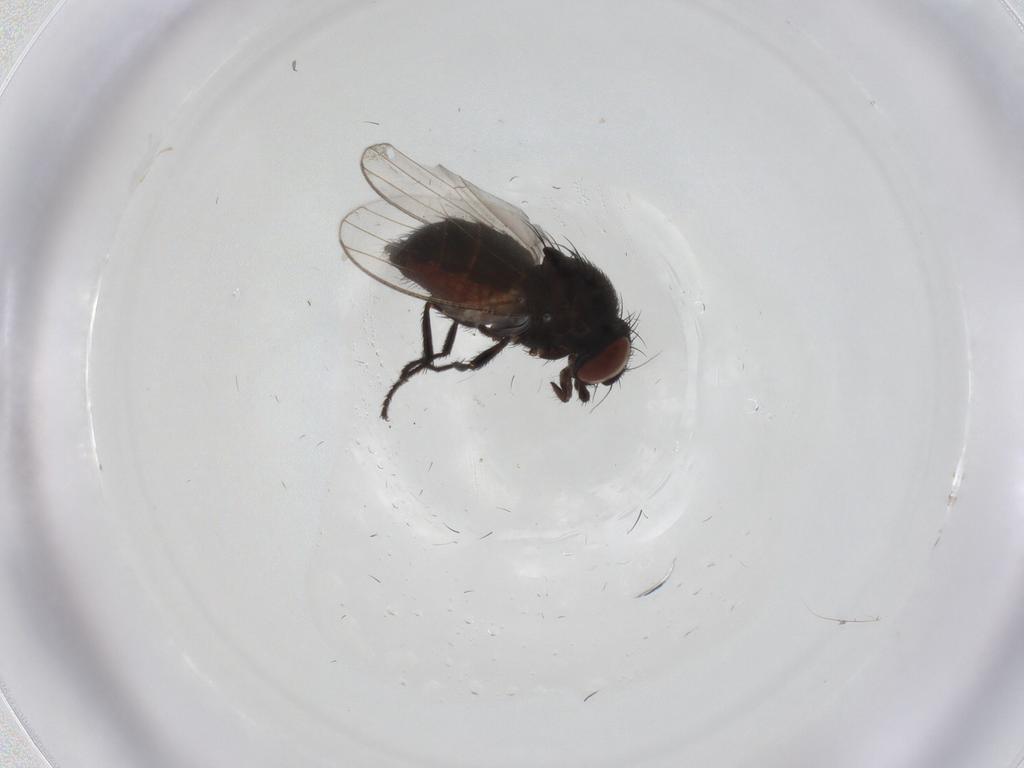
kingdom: Animalia
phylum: Arthropoda
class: Insecta
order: Diptera
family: Chironomidae
